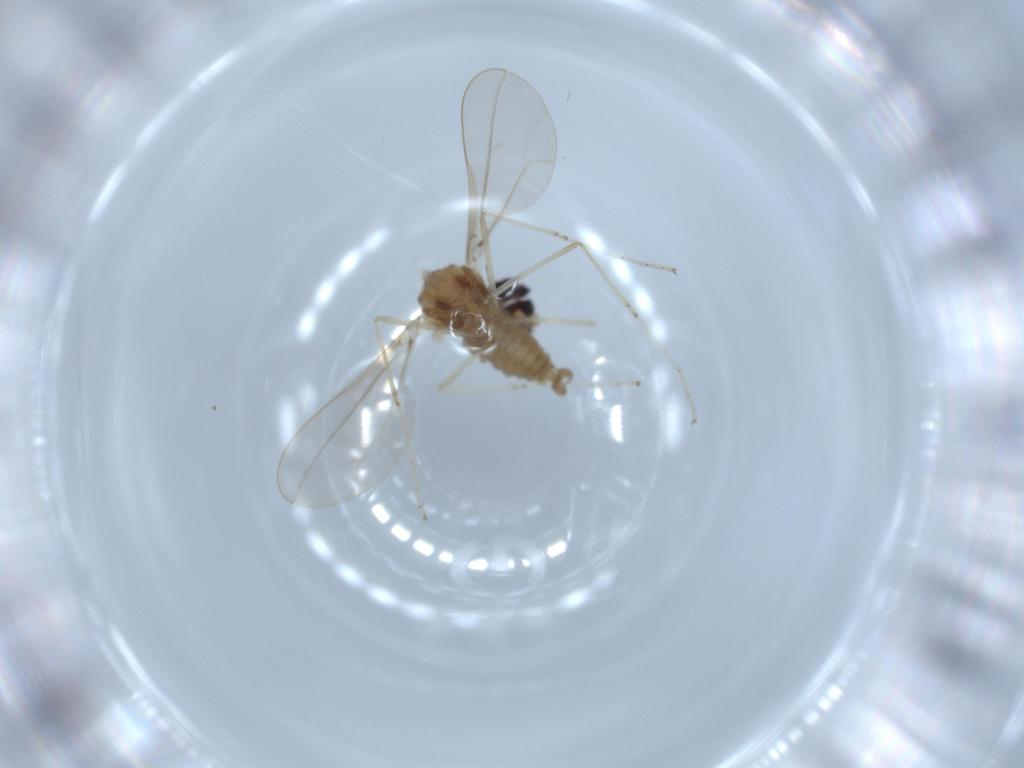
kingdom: Animalia
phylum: Arthropoda
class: Insecta
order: Diptera
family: Cecidomyiidae
